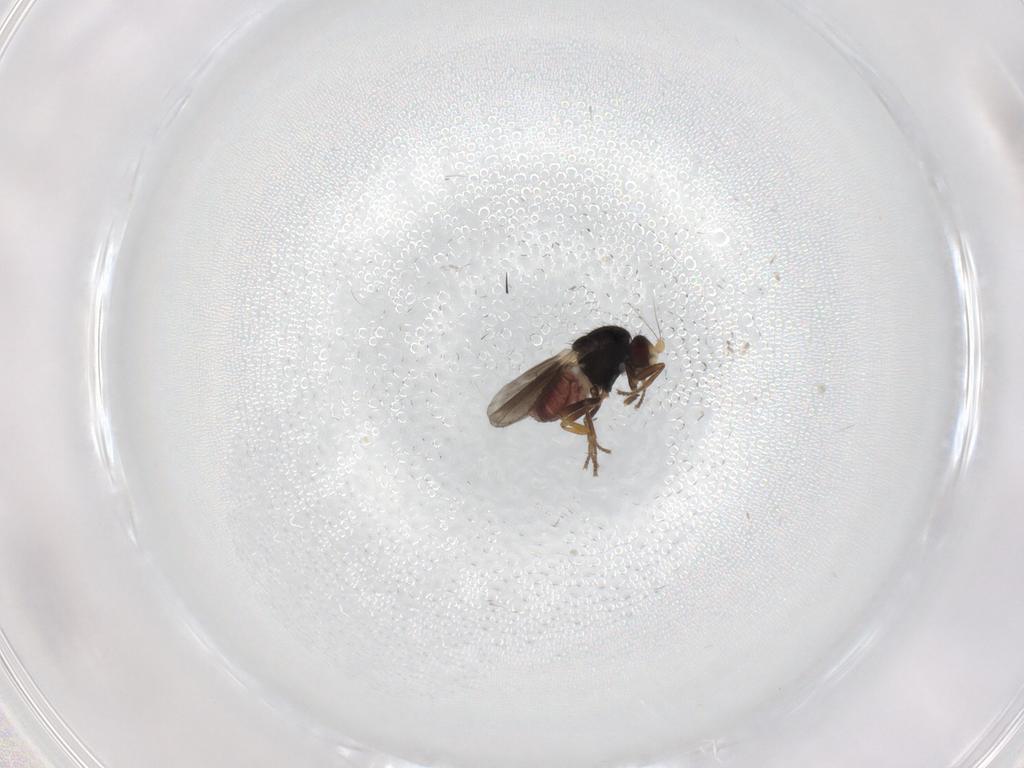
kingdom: Animalia
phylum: Arthropoda
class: Insecta
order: Diptera
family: Sphaeroceridae
